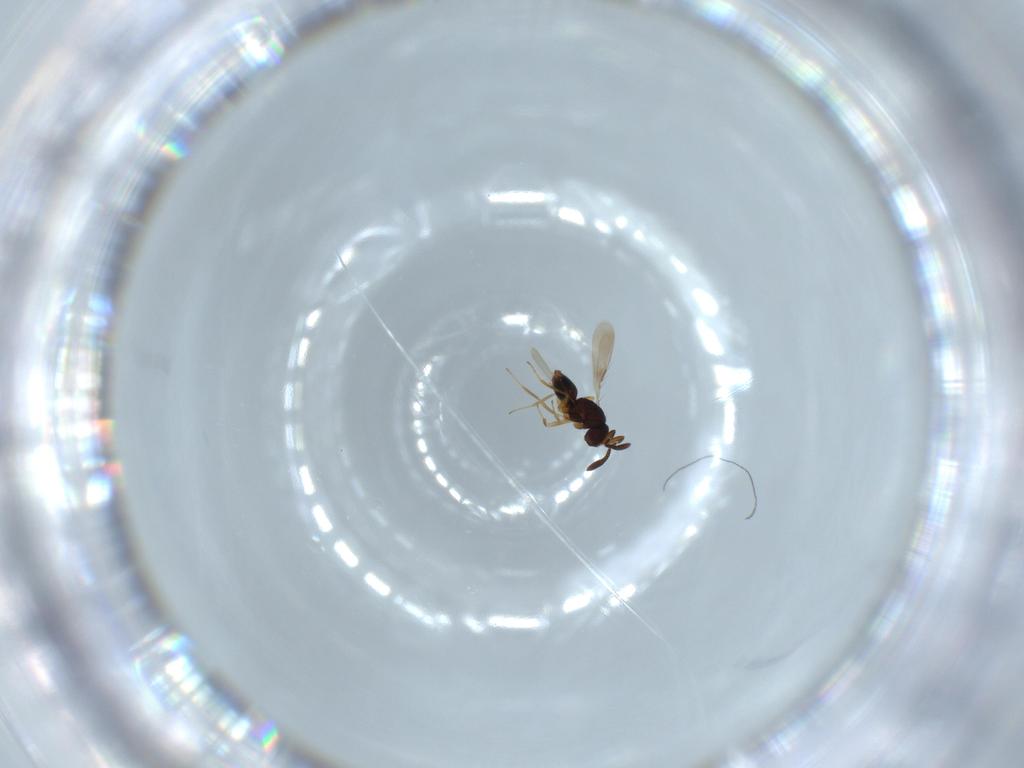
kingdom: Animalia
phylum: Arthropoda
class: Insecta
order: Hymenoptera
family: Mymaridae
